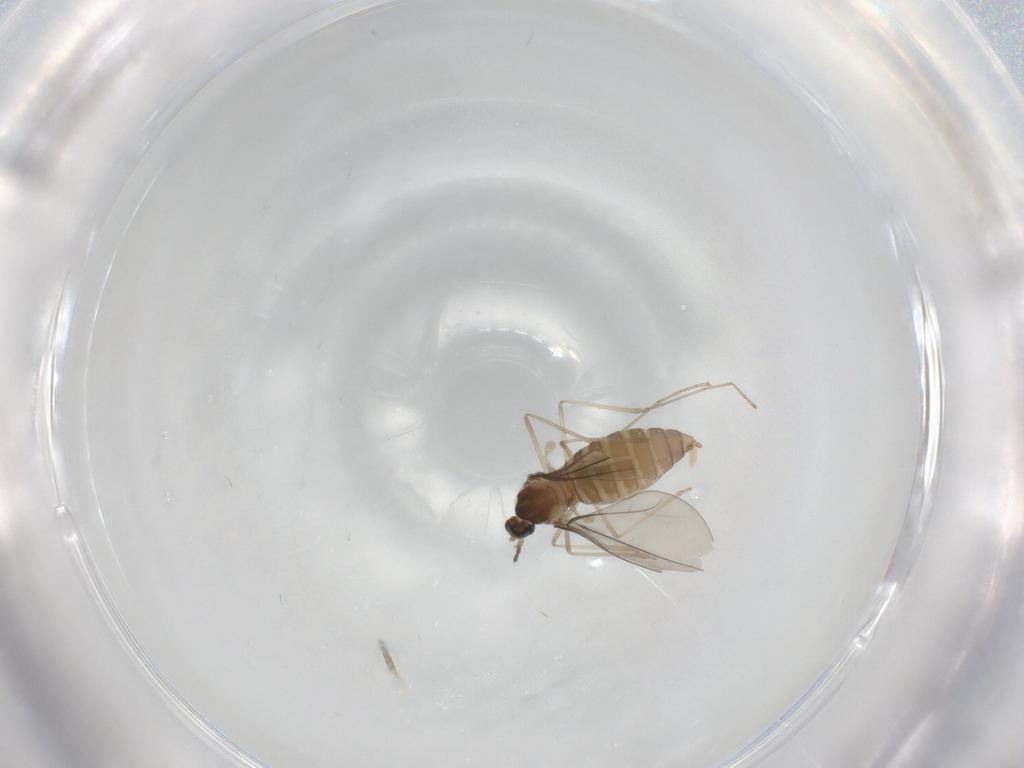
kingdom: Animalia
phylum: Arthropoda
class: Insecta
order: Diptera
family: Cecidomyiidae
